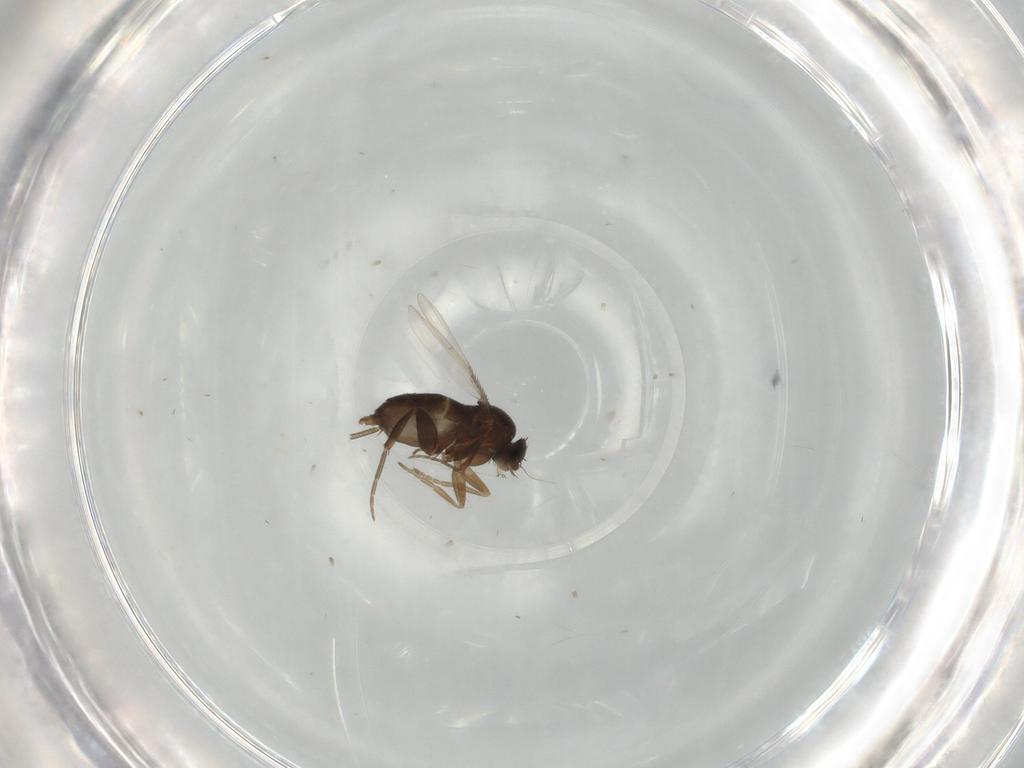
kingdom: Animalia
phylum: Arthropoda
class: Insecta
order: Diptera
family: Phoridae
